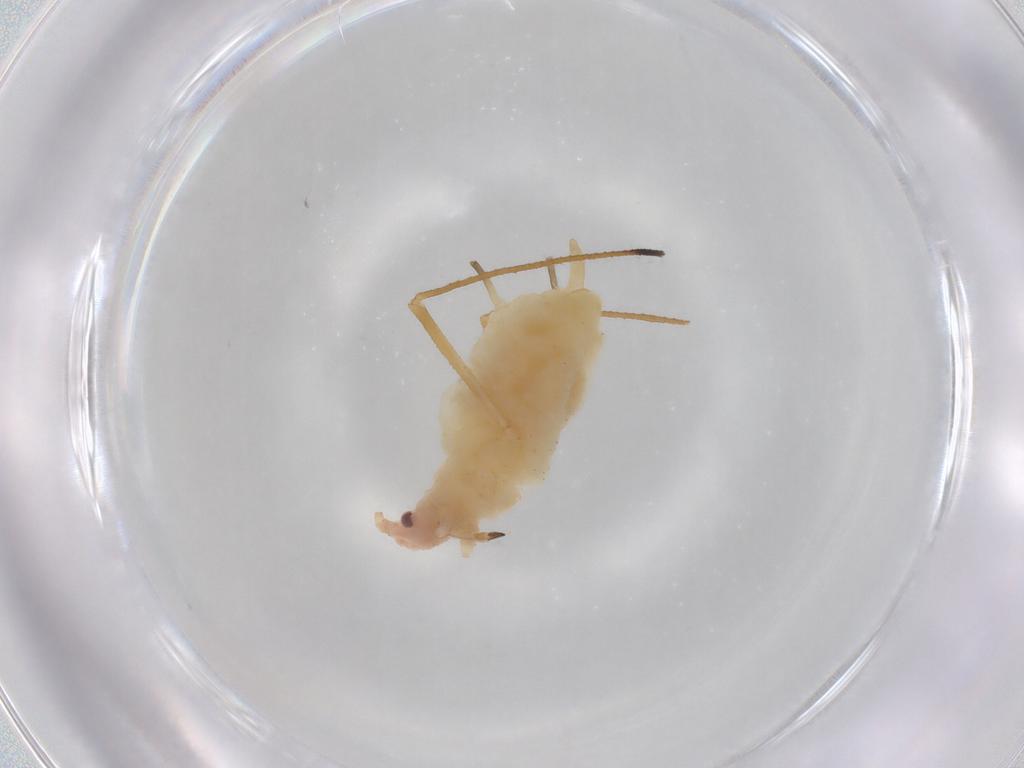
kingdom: Animalia
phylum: Arthropoda
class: Insecta
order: Hemiptera
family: Aphididae
